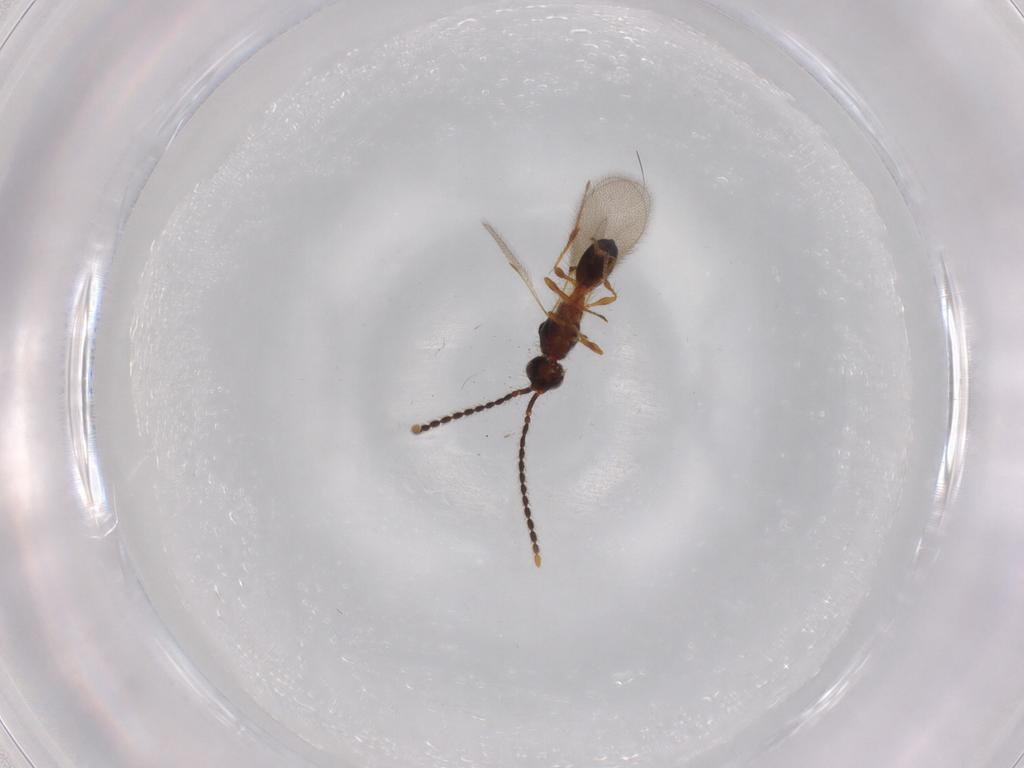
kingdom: Animalia
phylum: Arthropoda
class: Insecta
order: Hymenoptera
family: Diapriidae
